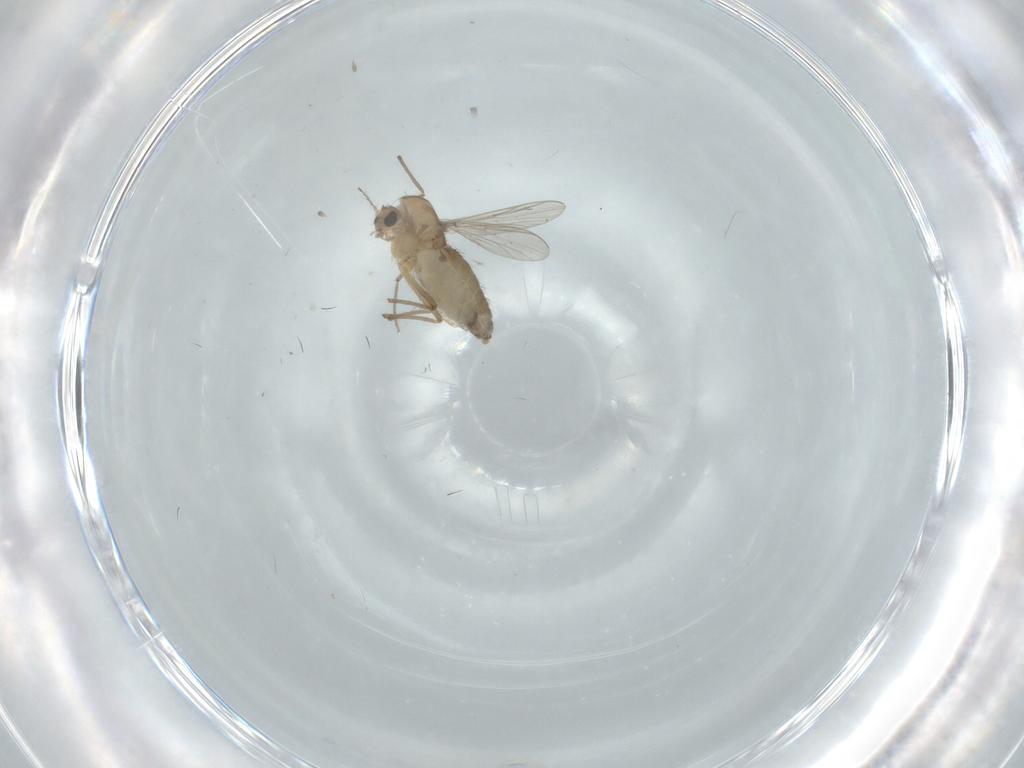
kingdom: Animalia
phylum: Arthropoda
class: Insecta
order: Diptera
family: Chironomidae
